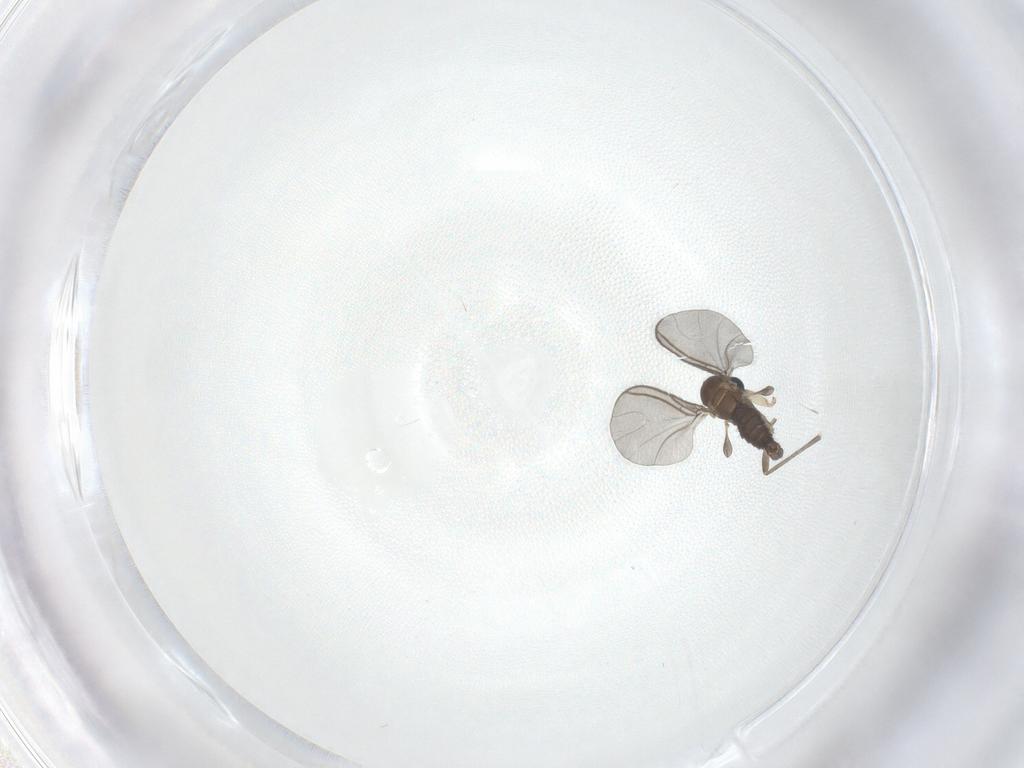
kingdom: Animalia
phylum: Arthropoda
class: Insecta
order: Diptera
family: Sciaridae
